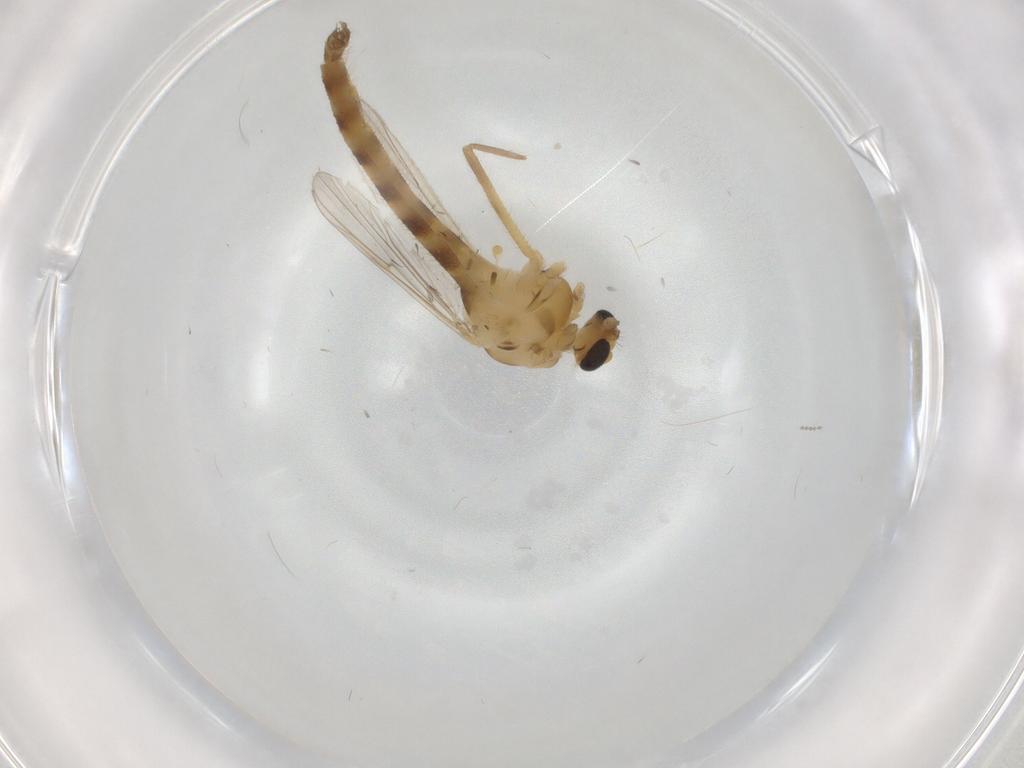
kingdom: Animalia
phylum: Arthropoda
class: Insecta
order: Diptera
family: Chironomidae
